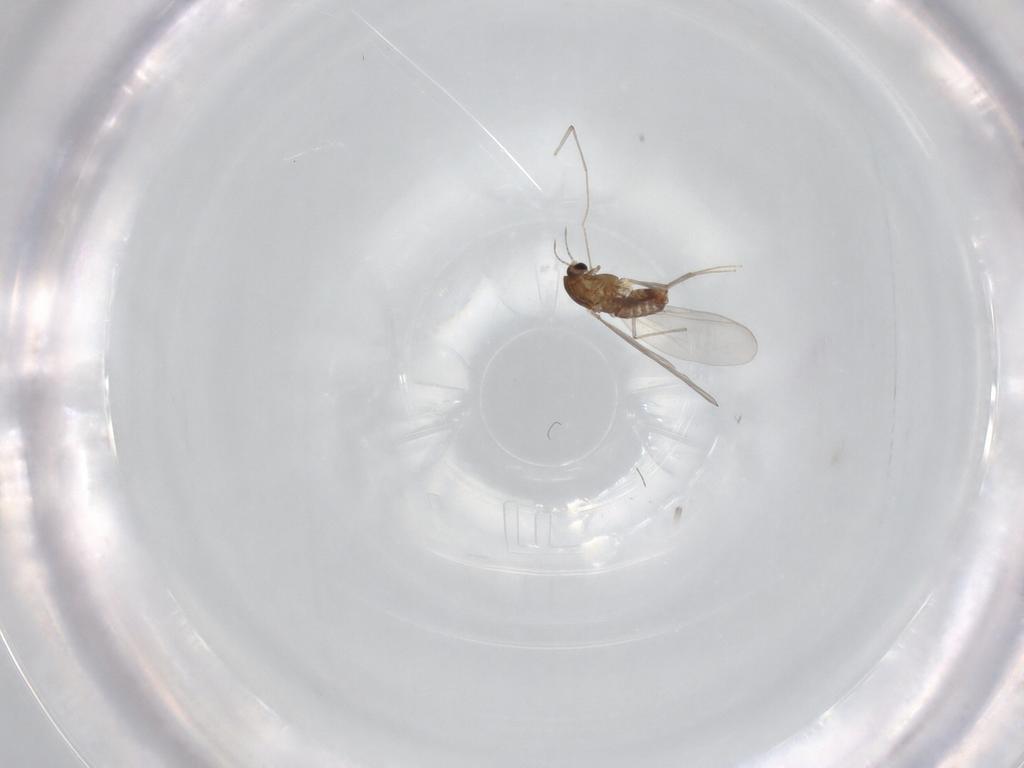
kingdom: Animalia
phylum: Arthropoda
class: Insecta
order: Diptera
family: Chironomidae
